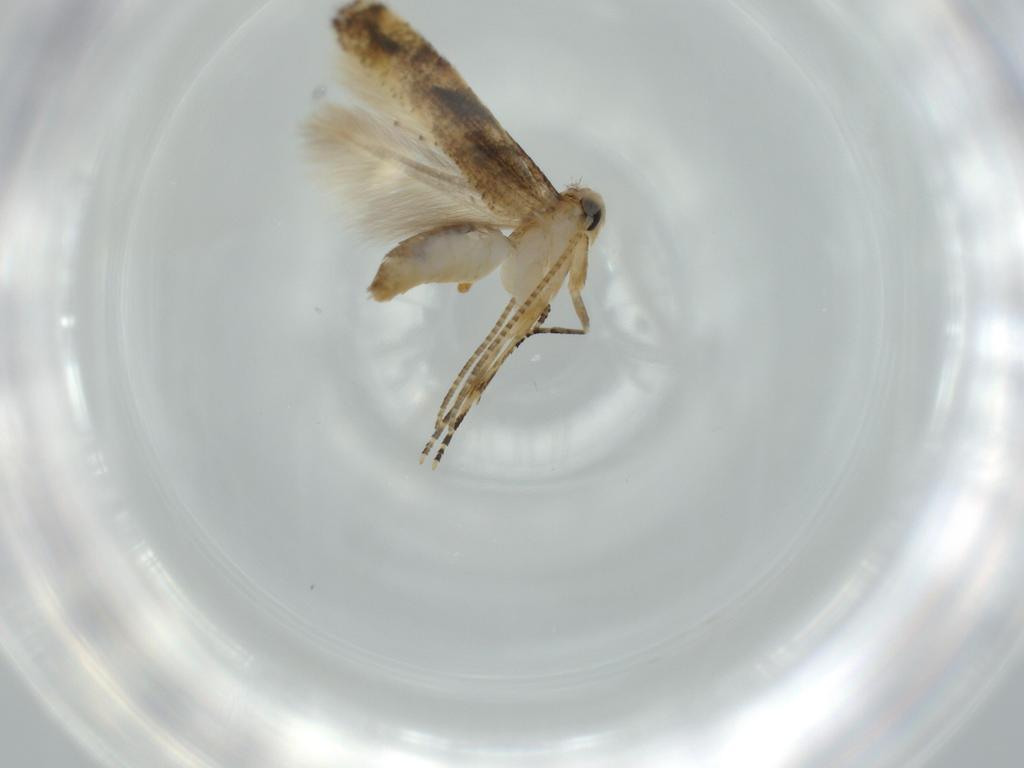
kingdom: Animalia
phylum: Arthropoda
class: Insecta
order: Lepidoptera
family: Bucculatricidae
